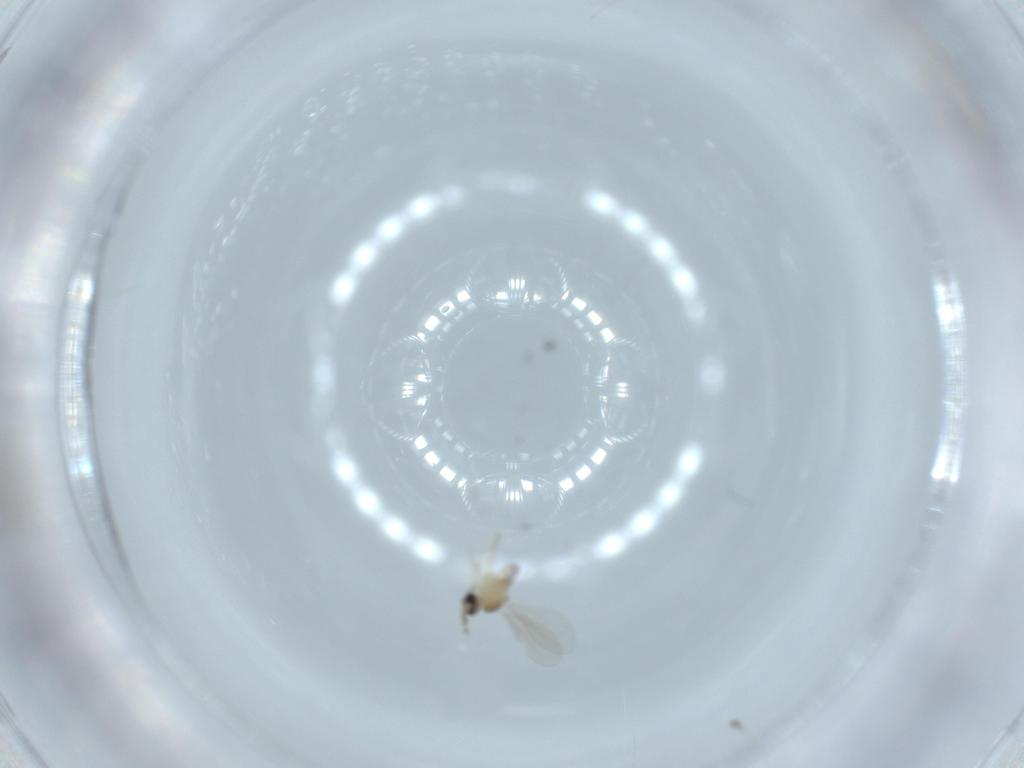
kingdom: Animalia
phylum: Arthropoda
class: Insecta
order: Diptera
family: Cecidomyiidae
